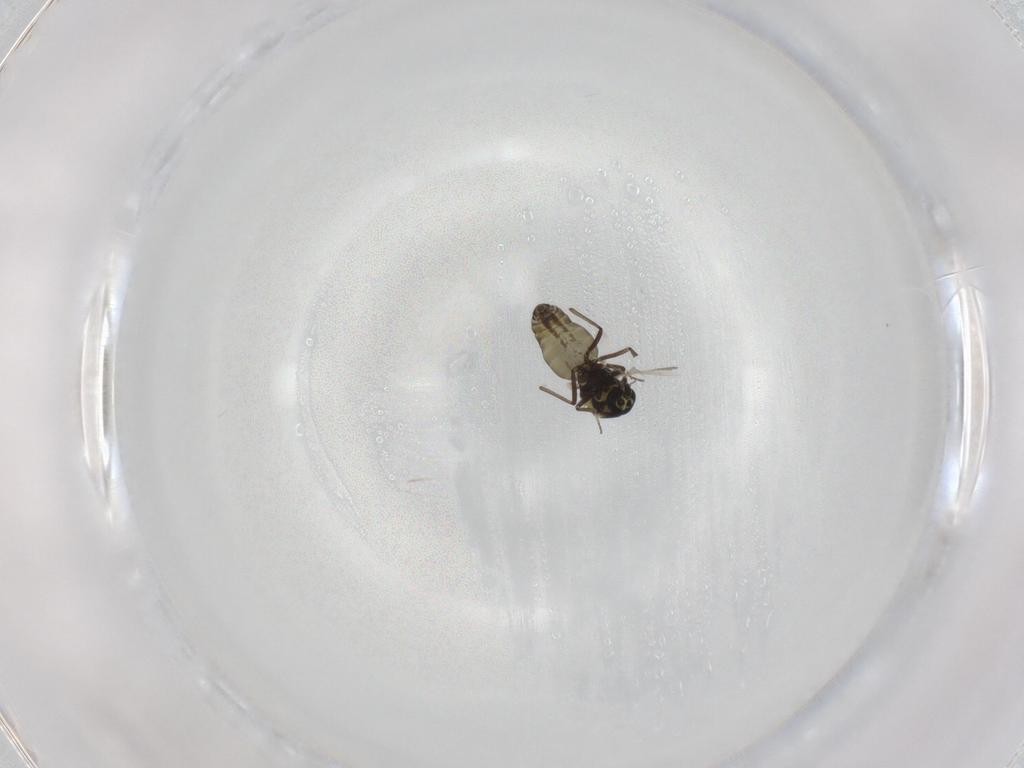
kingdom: Animalia
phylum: Arthropoda
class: Insecta
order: Diptera
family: Ceratopogonidae
